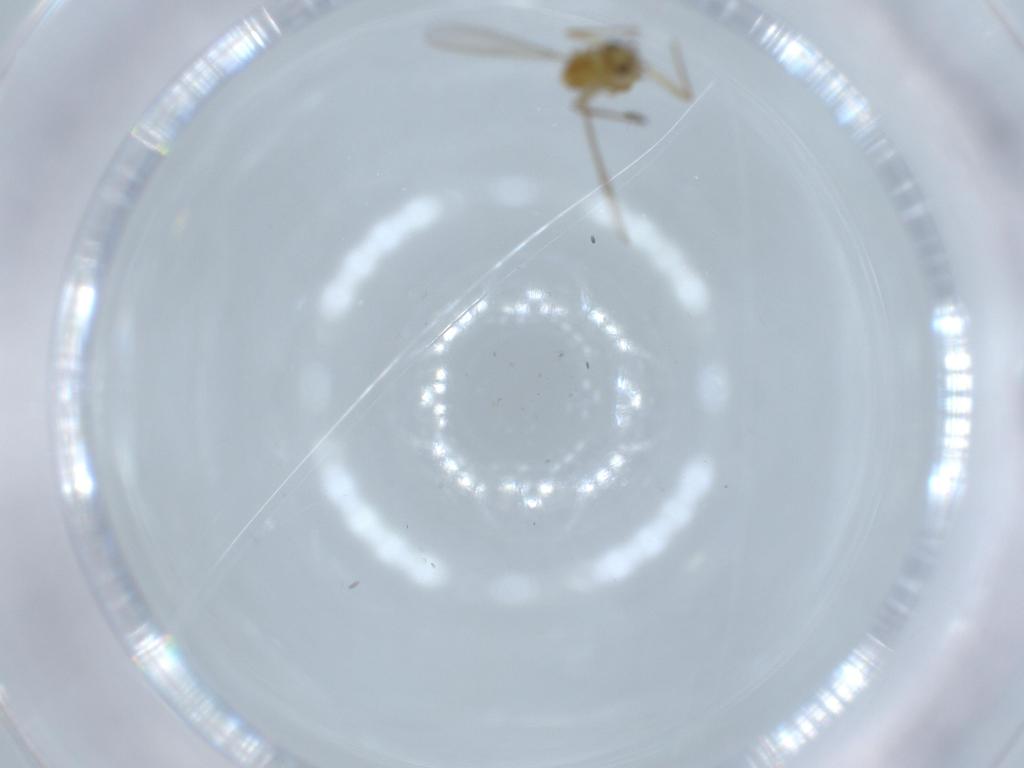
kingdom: Animalia
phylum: Arthropoda
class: Insecta
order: Diptera
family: Chironomidae
